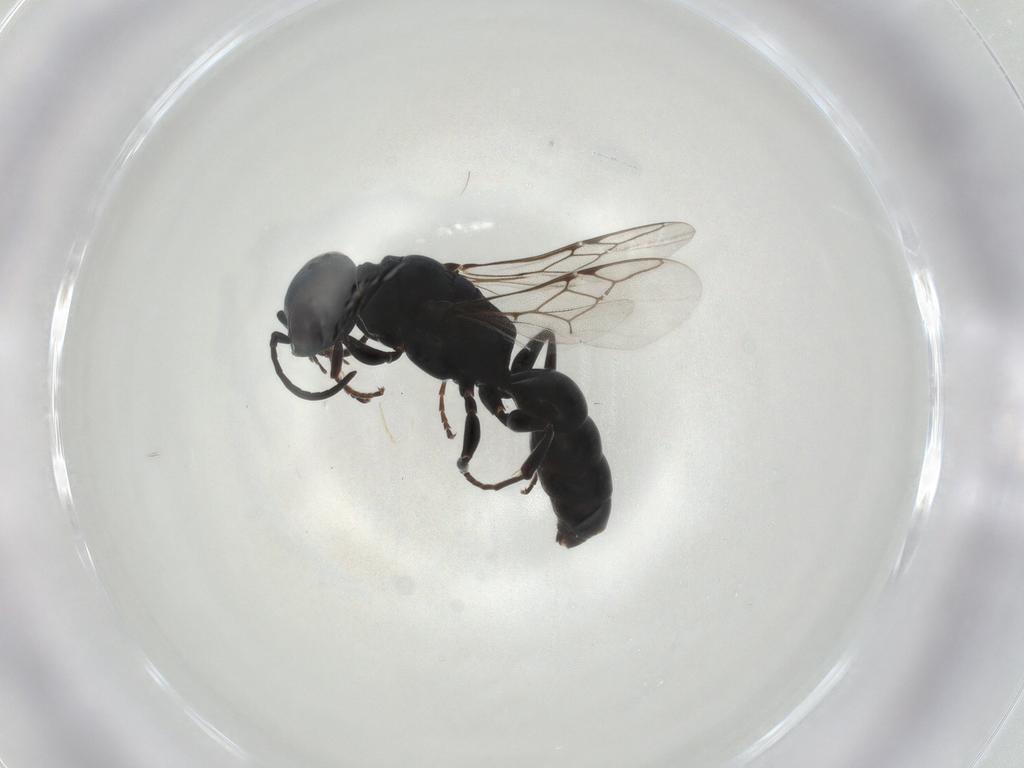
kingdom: Animalia
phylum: Arthropoda
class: Insecta
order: Hymenoptera
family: Crabronidae
